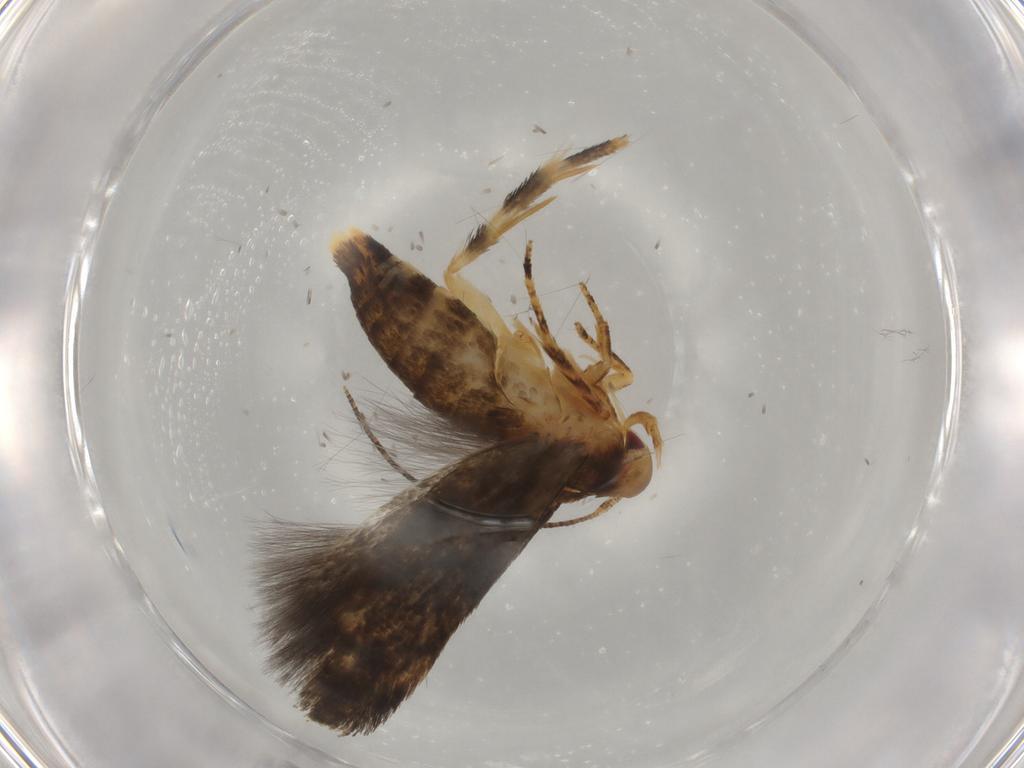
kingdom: Animalia
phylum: Arthropoda
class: Insecta
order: Lepidoptera
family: Momphidae
